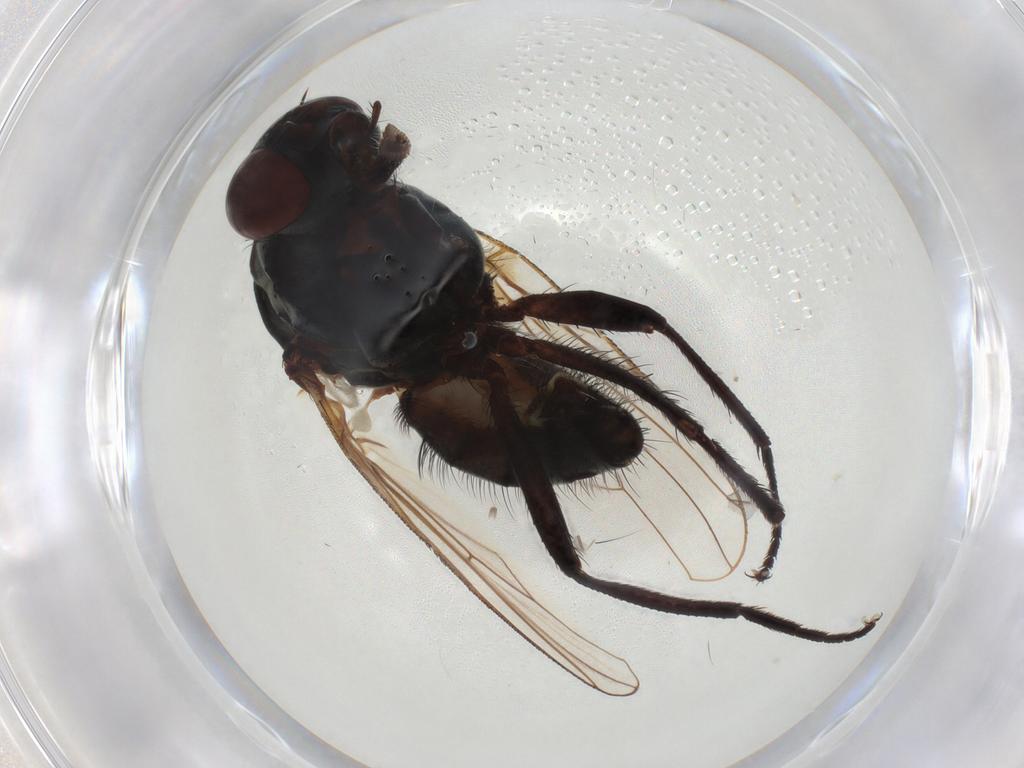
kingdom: Animalia
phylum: Arthropoda
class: Insecta
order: Diptera
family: Anthomyiidae
